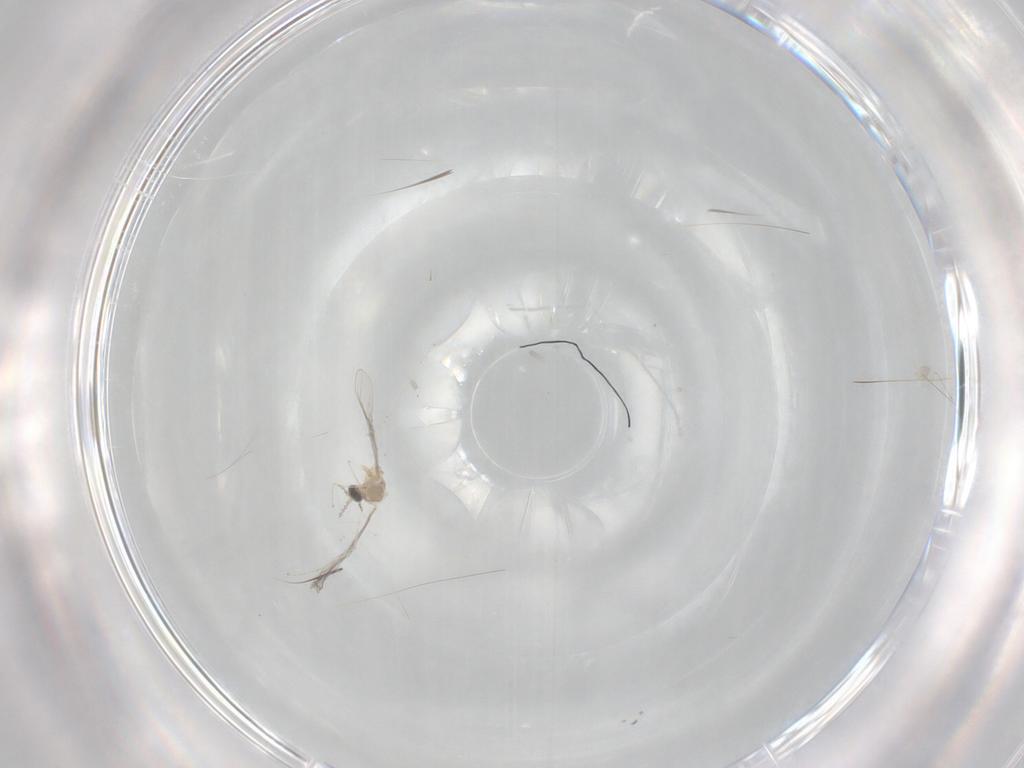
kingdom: Animalia
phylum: Arthropoda
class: Insecta
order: Diptera
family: Cecidomyiidae
